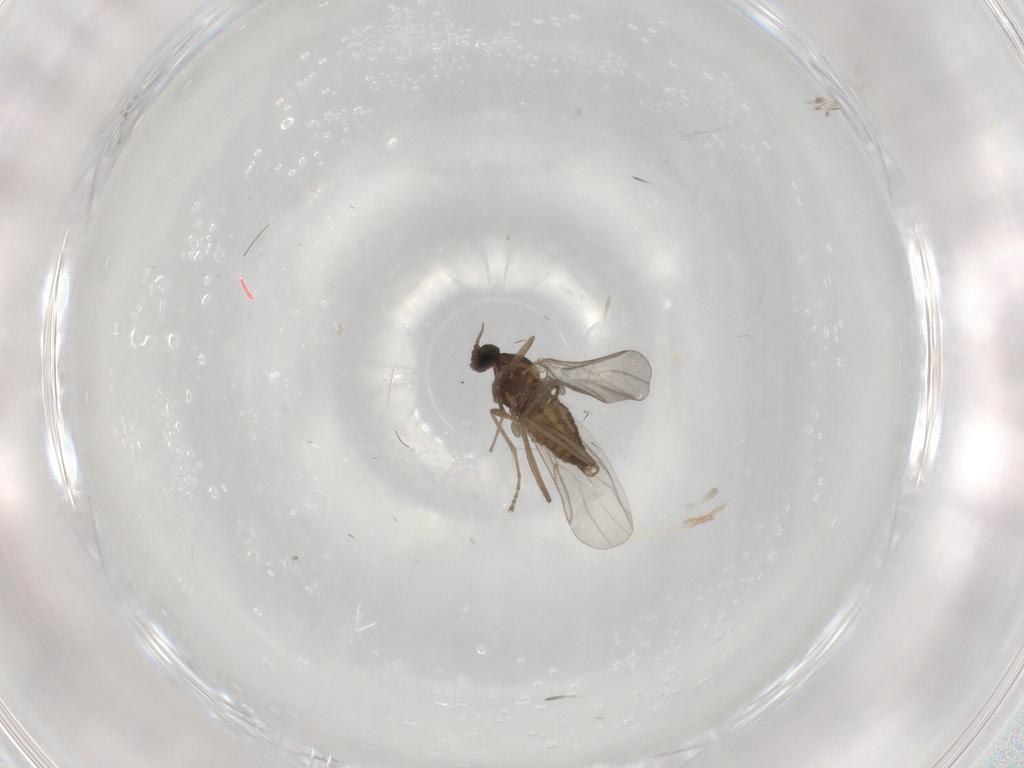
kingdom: Animalia
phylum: Arthropoda
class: Insecta
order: Diptera
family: Cecidomyiidae
